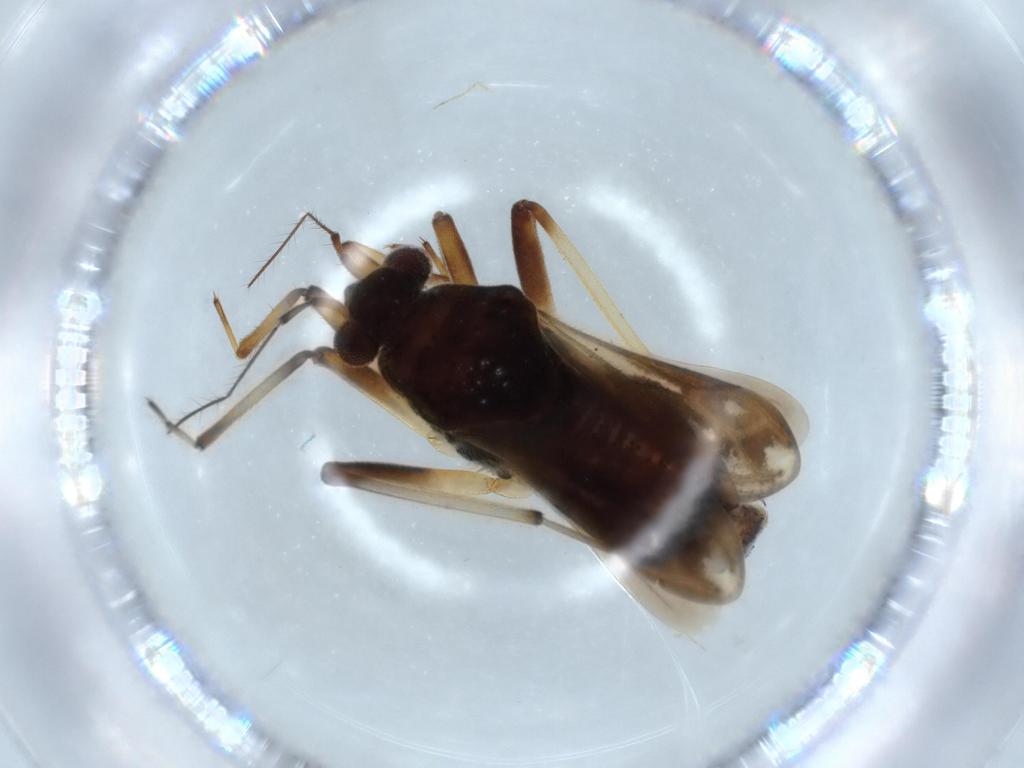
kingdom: Animalia
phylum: Arthropoda
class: Insecta
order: Hemiptera
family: Veliidae
